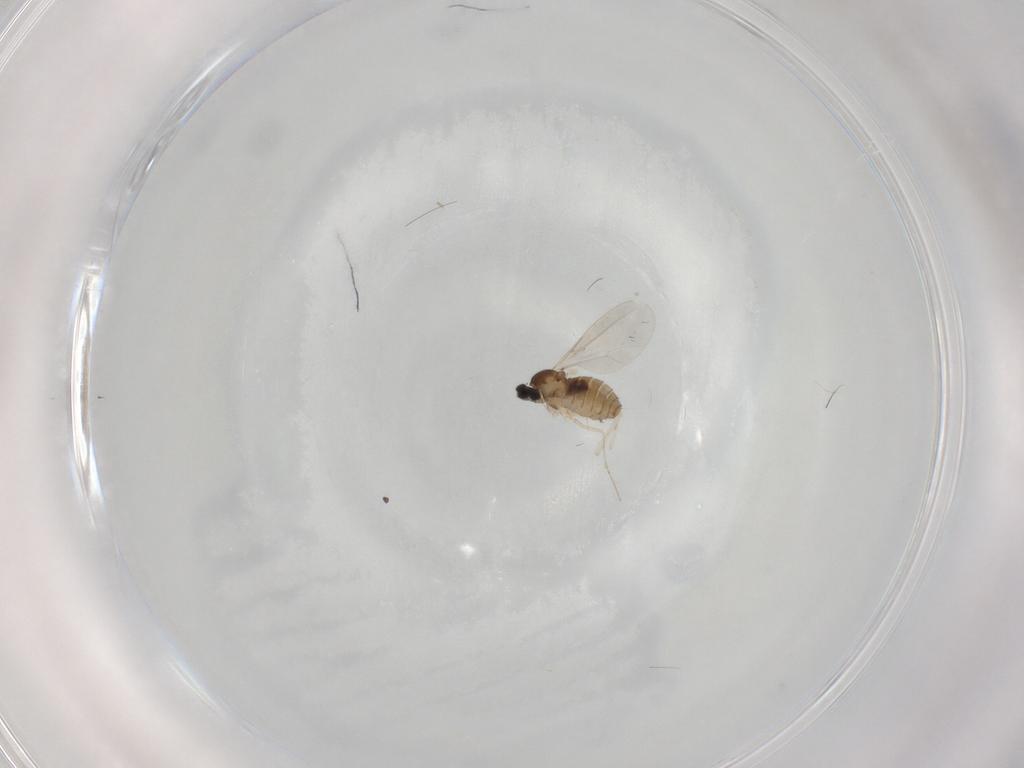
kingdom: Animalia
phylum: Arthropoda
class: Insecta
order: Diptera
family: Cecidomyiidae
